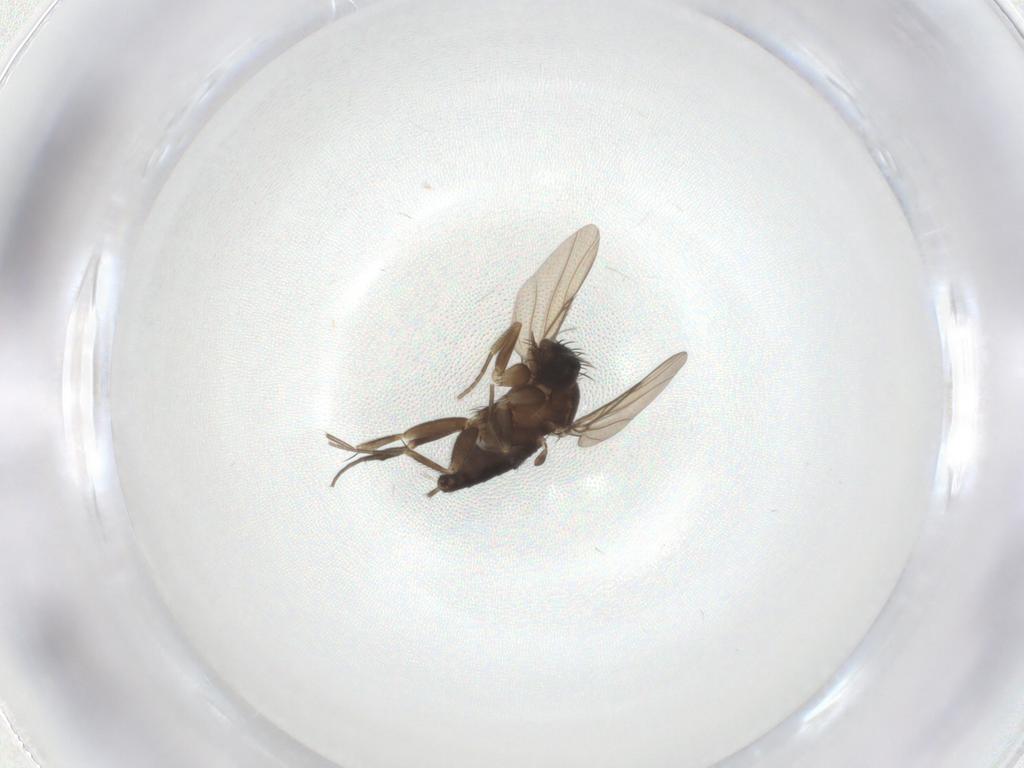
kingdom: Animalia
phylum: Arthropoda
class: Insecta
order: Diptera
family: Phoridae
